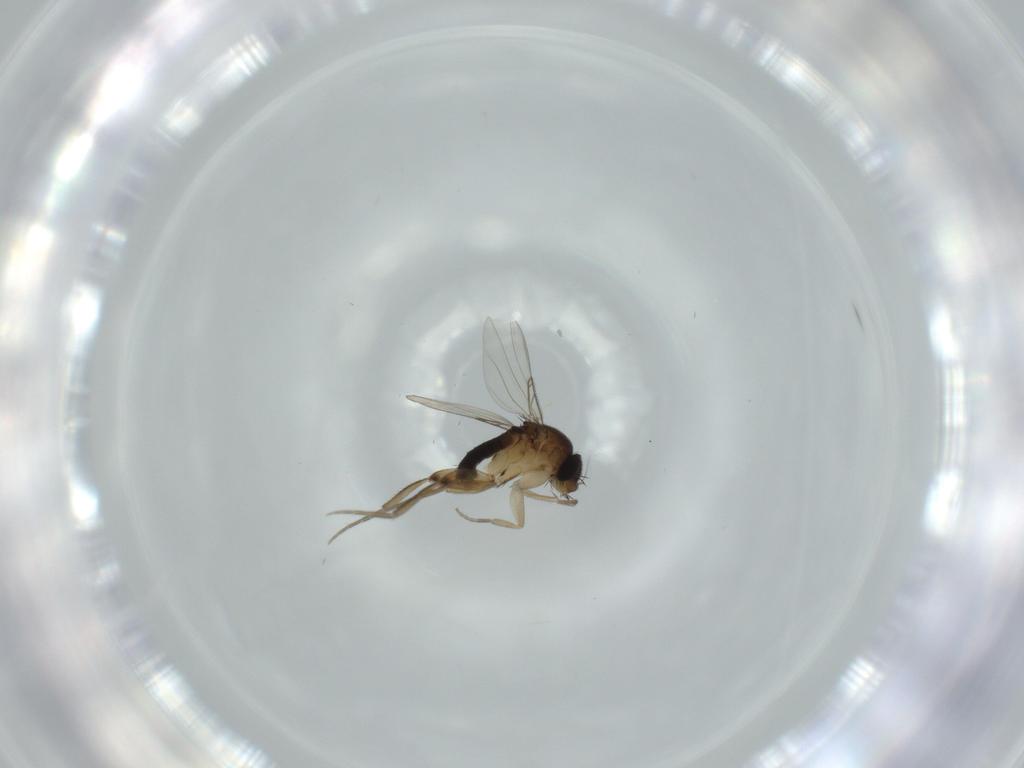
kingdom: Animalia
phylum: Arthropoda
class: Insecta
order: Diptera
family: Phoridae
